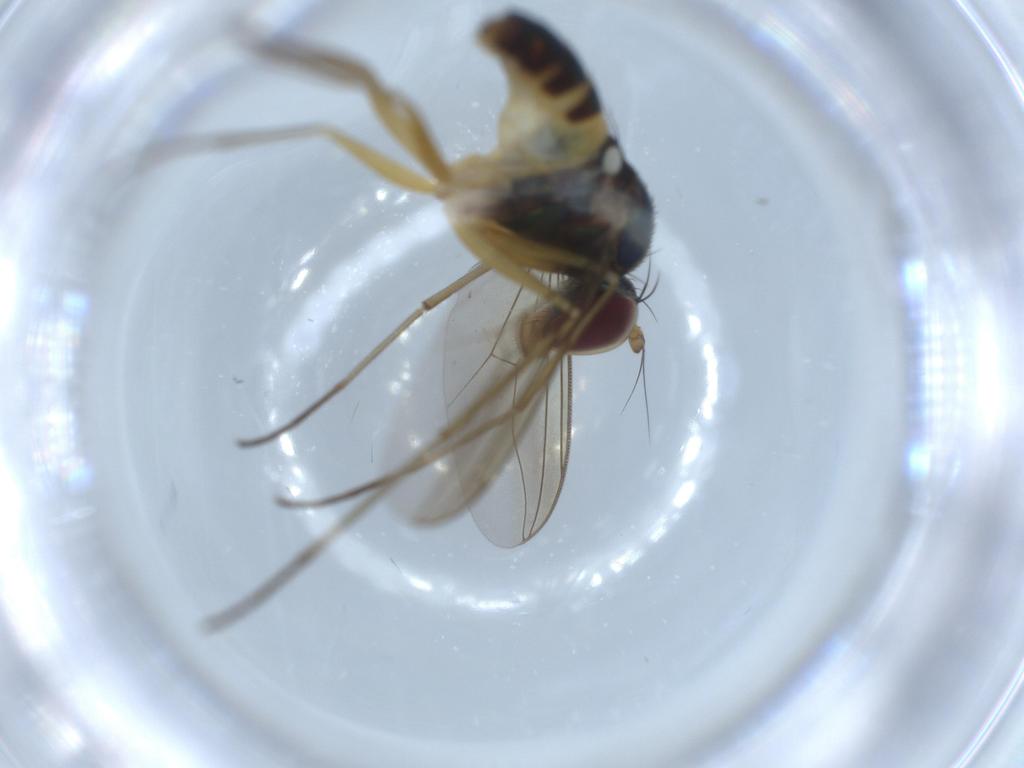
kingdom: Animalia
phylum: Arthropoda
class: Insecta
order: Diptera
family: Dolichopodidae
